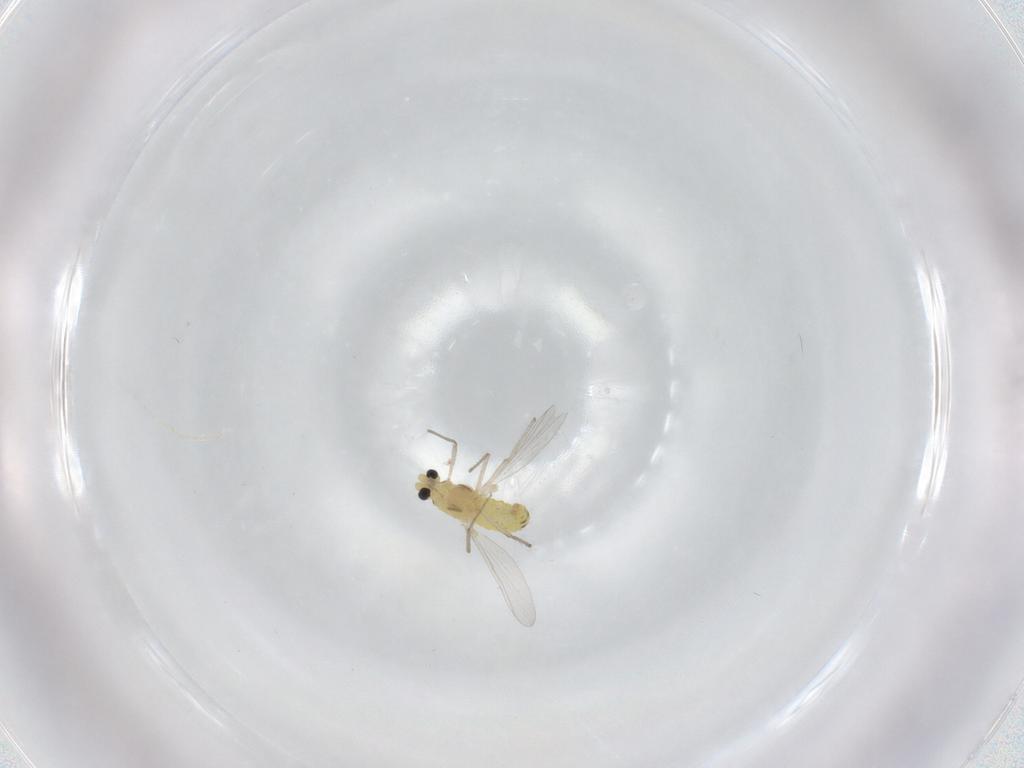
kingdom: Animalia
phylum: Arthropoda
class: Insecta
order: Diptera
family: Chironomidae
